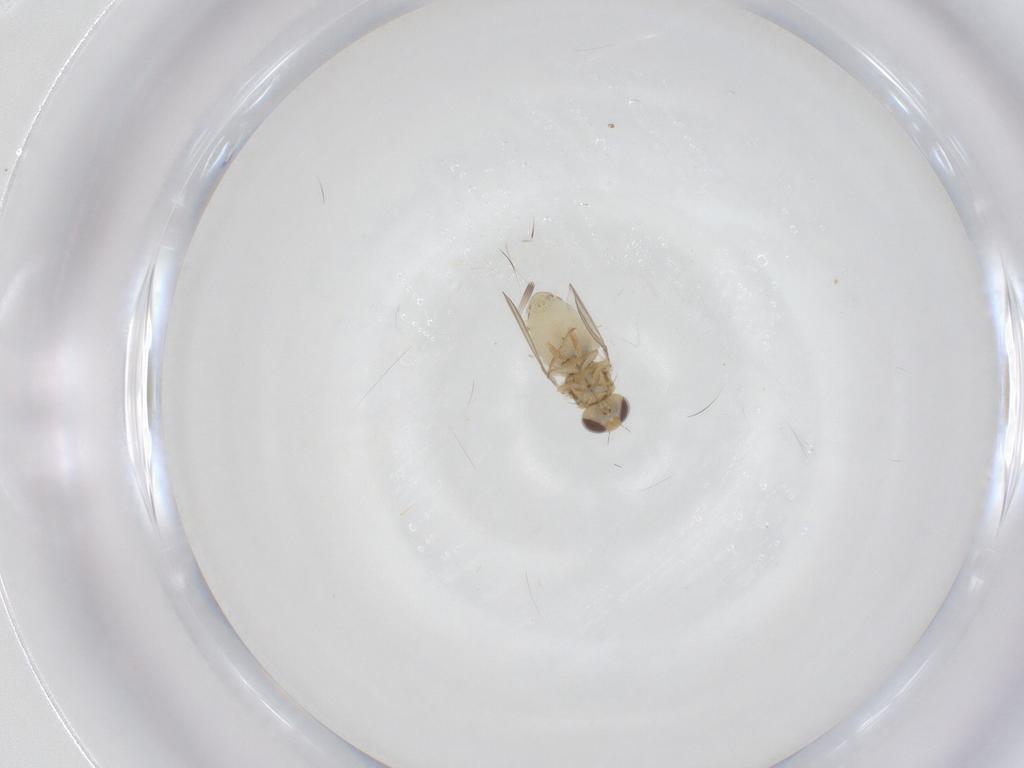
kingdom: Animalia
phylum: Arthropoda
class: Insecta
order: Diptera
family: Chyromyidae
